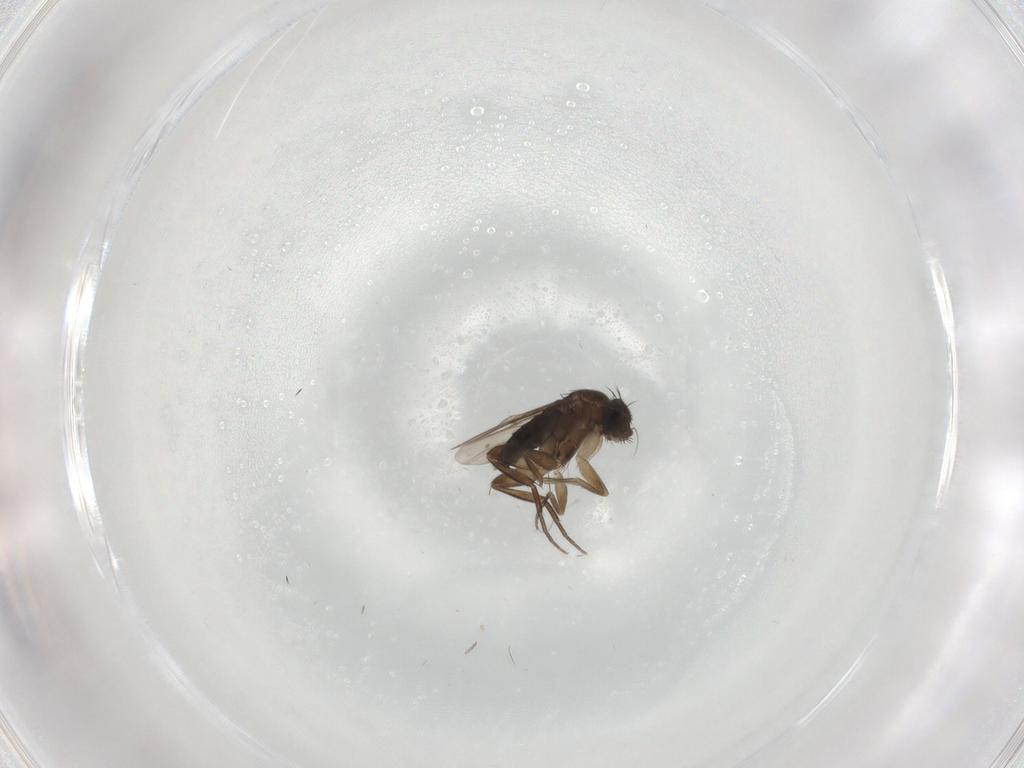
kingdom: Animalia
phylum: Arthropoda
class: Insecta
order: Diptera
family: Phoridae
